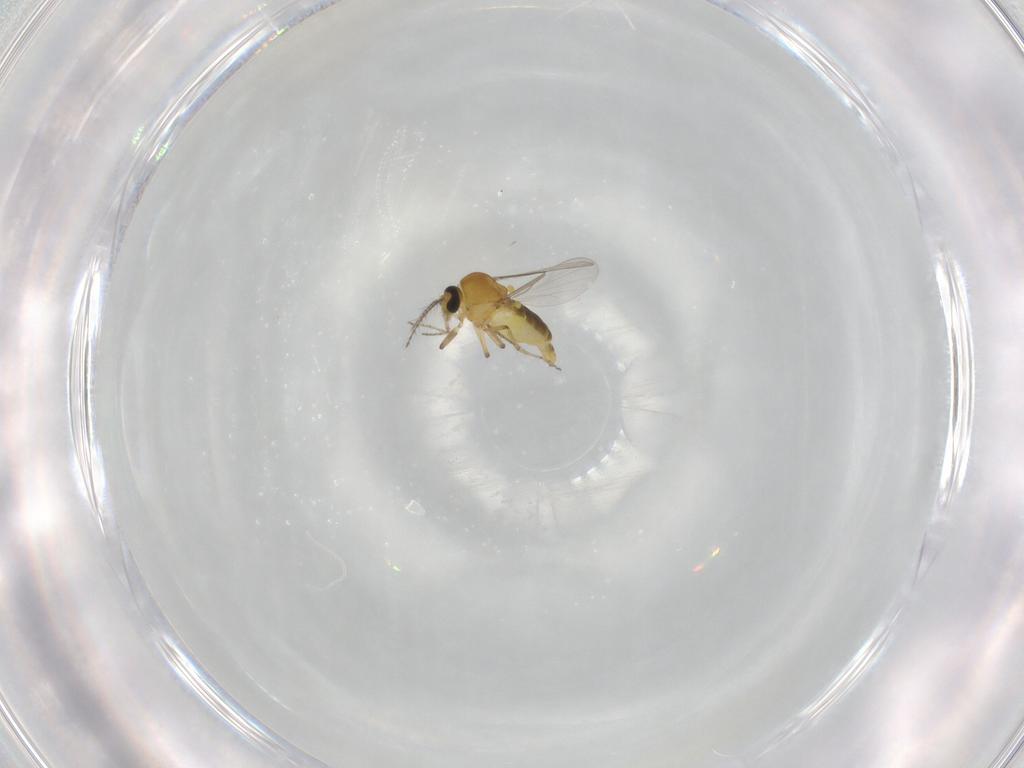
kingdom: Animalia
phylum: Arthropoda
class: Insecta
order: Diptera
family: Ceratopogonidae
